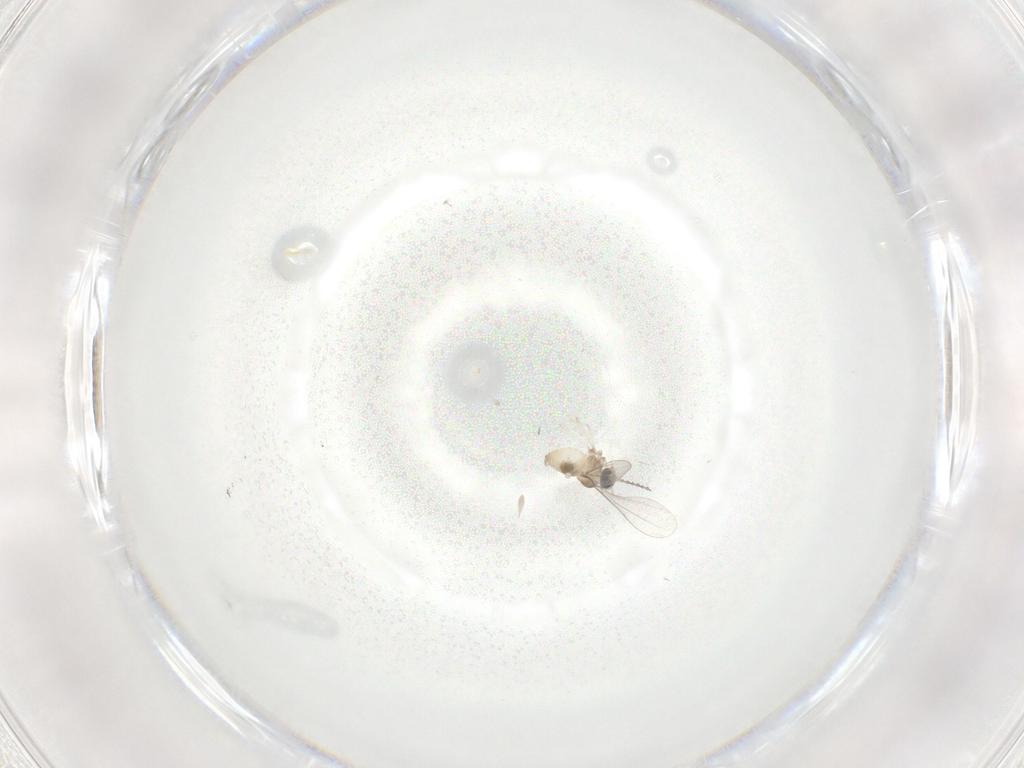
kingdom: Animalia
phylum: Arthropoda
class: Insecta
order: Diptera
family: Cecidomyiidae
